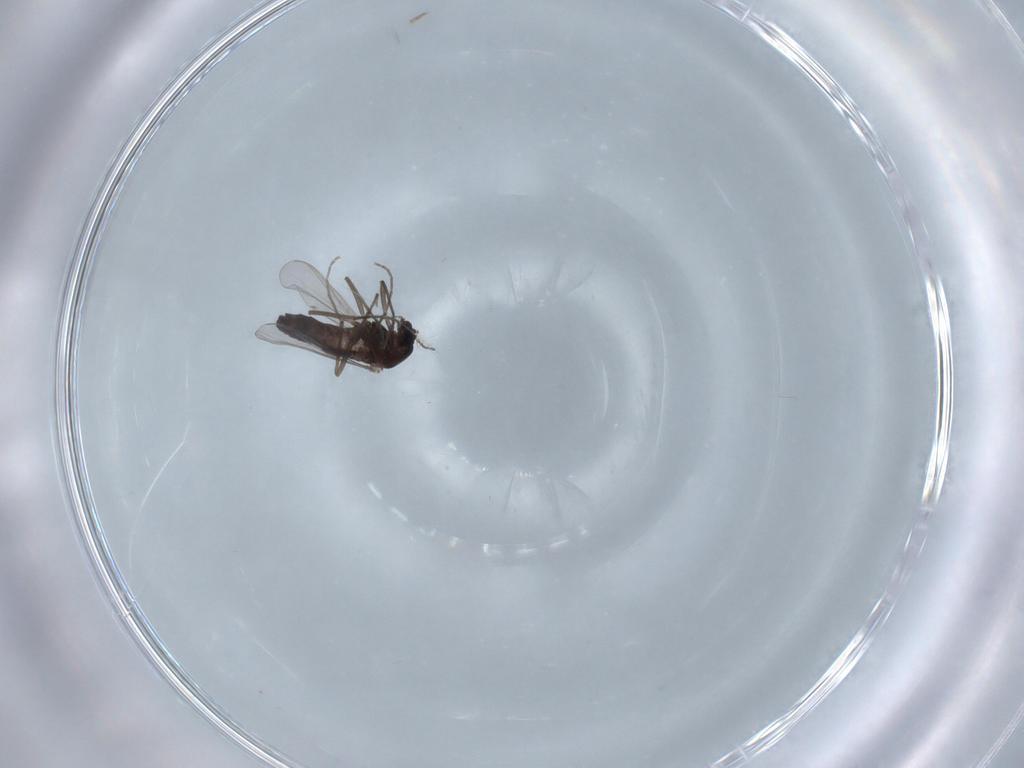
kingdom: Animalia
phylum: Arthropoda
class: Insecta
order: Diptera
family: Chironomidae
